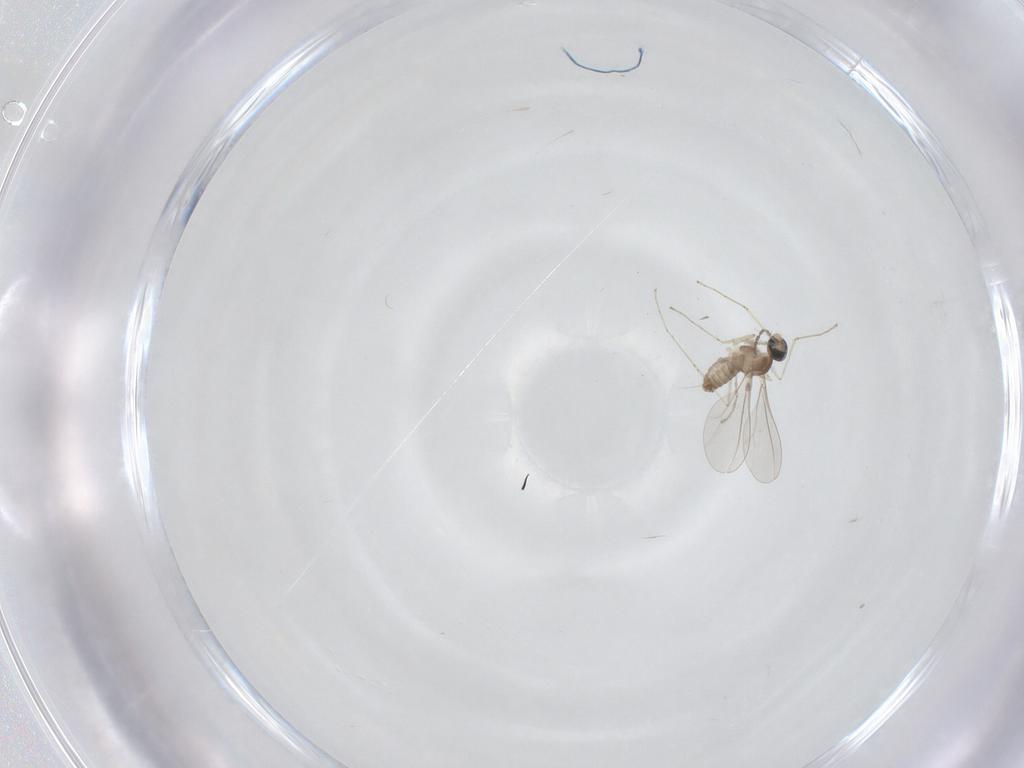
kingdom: Animalia
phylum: Arthropoda
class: Insecta
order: Diptera
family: Cecidomyiidae
